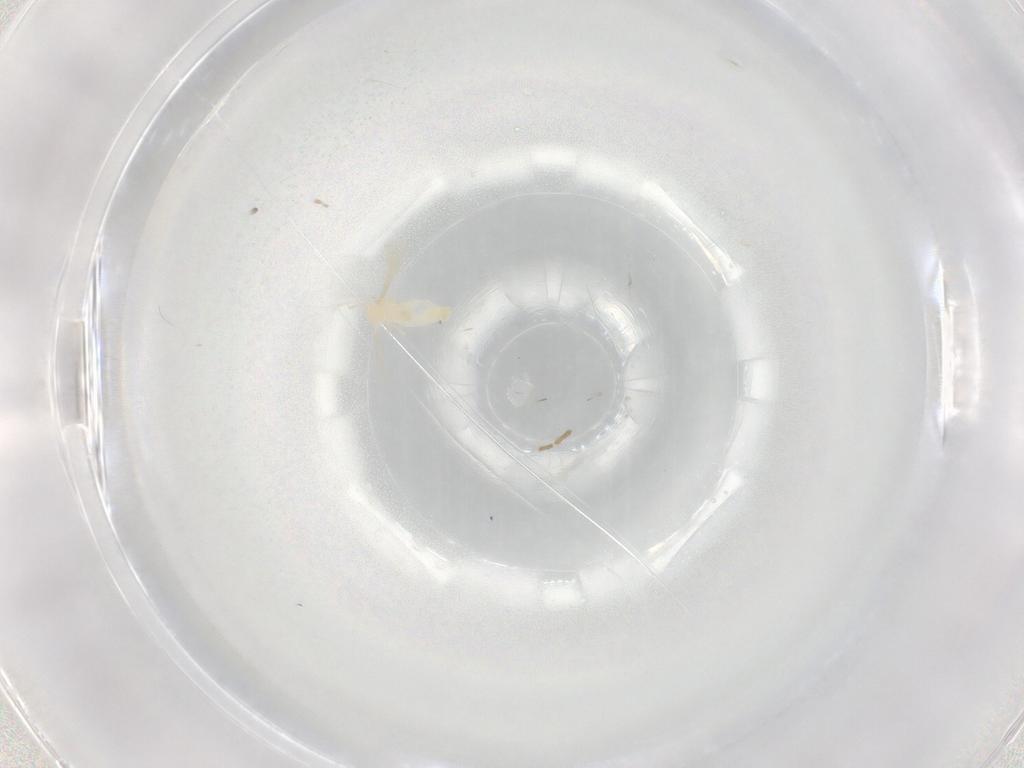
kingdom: Animalia
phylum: Arthropoda
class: Insecta
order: Diptera
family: Chironomidae
